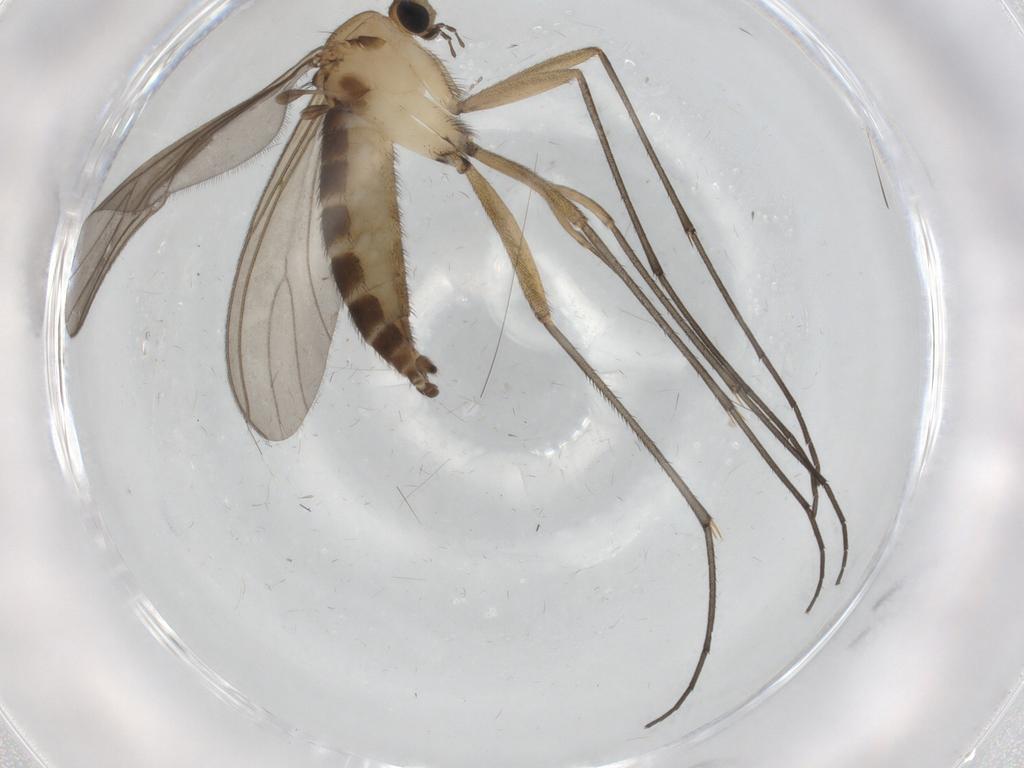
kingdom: Animalia
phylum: Arthropoda
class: Insecta
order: Diptera
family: Sciaridae
